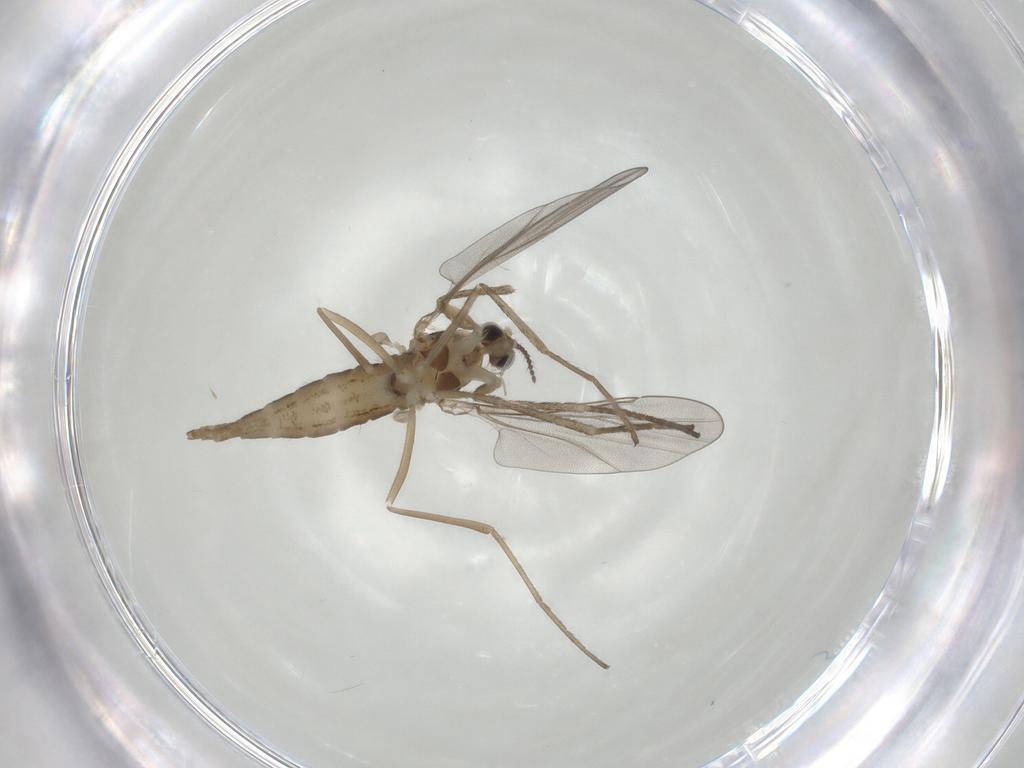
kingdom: Animalia
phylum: Arthropoda
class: Insecta
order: Diptera
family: Cecidomyiidae
